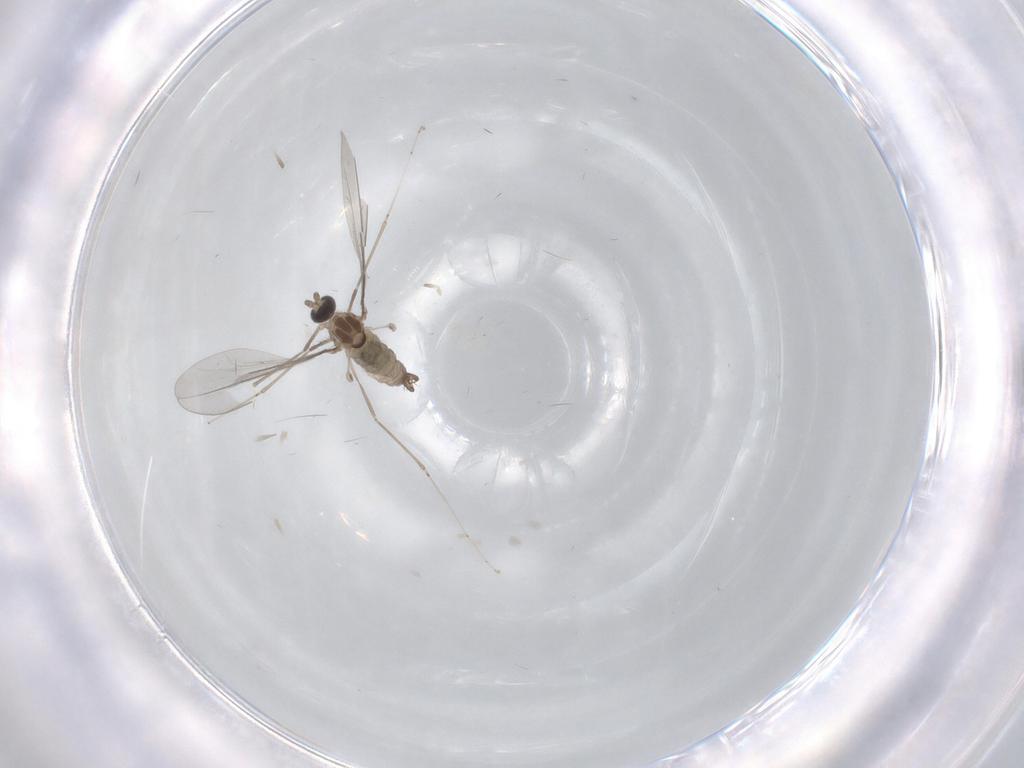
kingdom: Animalia
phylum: Arthropoda
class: Insecta
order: Diptera
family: Cecidomyiidae
